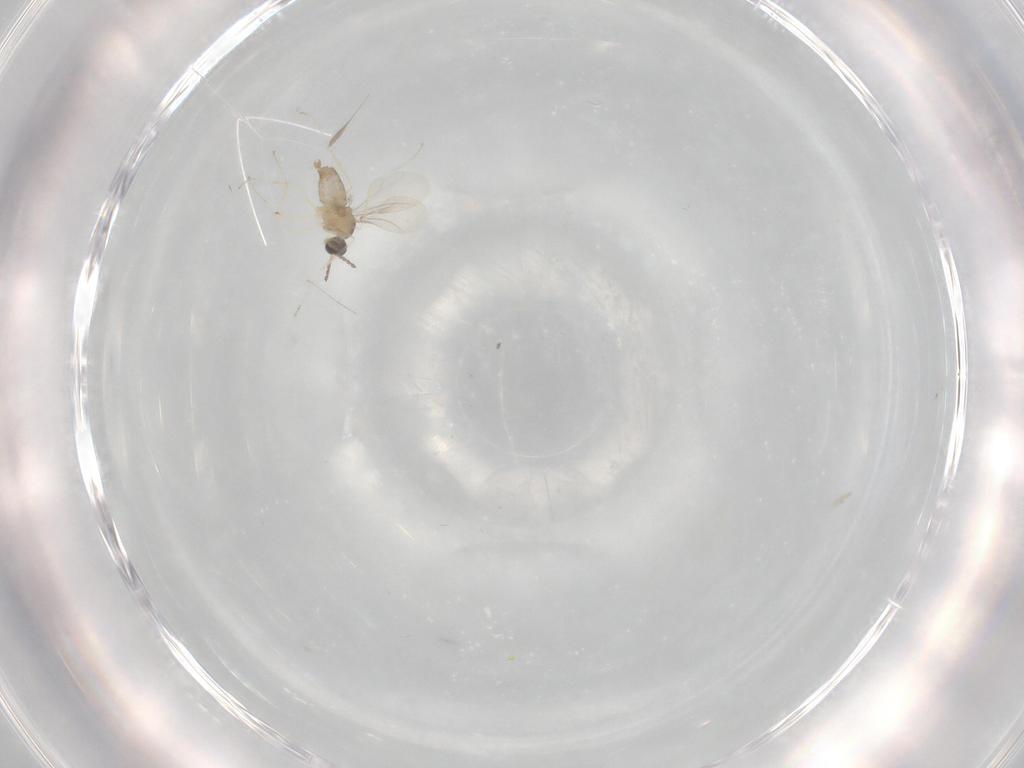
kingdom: Animalia
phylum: Arthropoda
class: Insecta
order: Diptera
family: Cecidomyiidae
